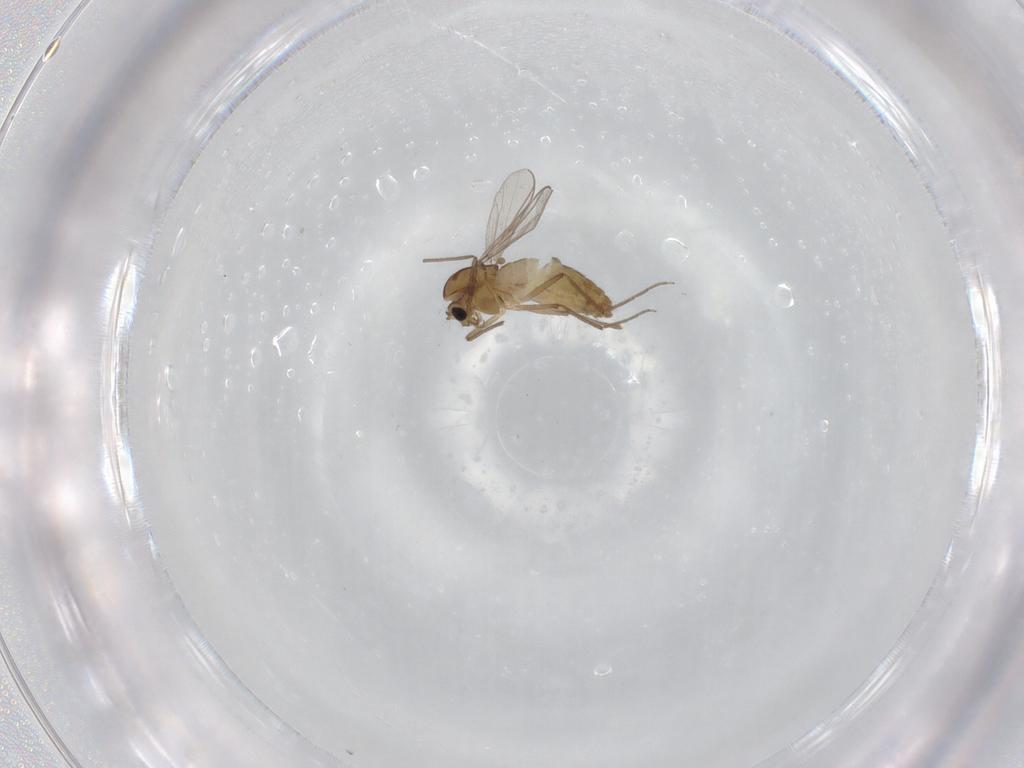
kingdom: Animalia
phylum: Arthropoda
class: Insecta
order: Diptera
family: Chironomidae
